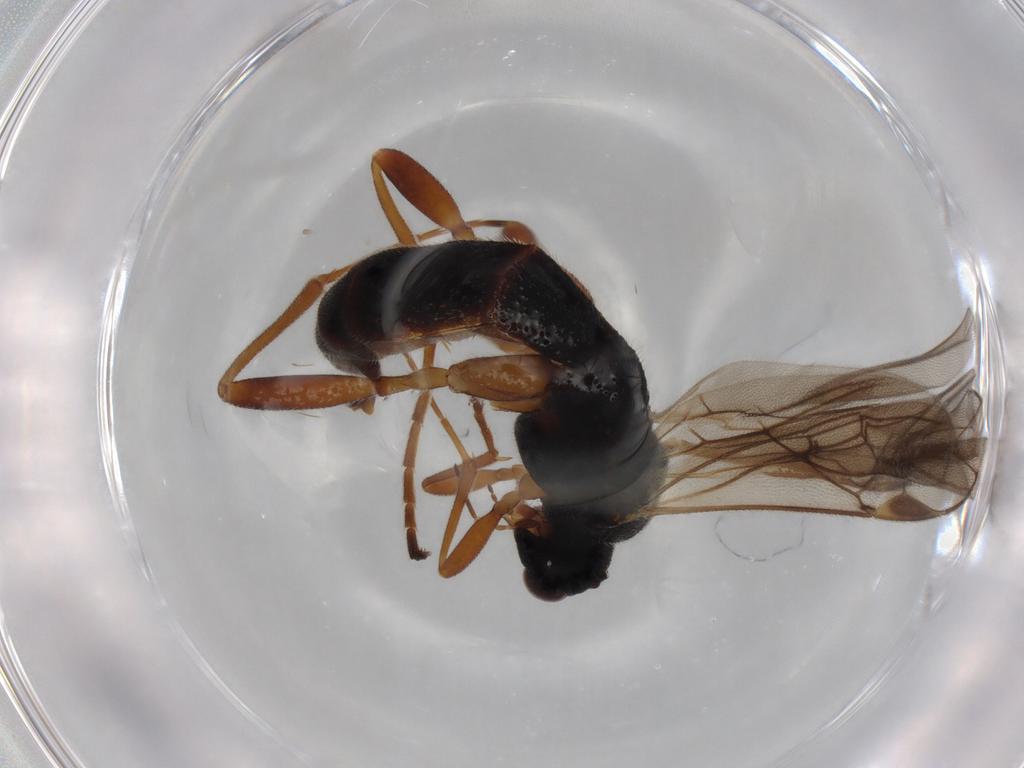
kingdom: Animalia
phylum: Arthropoda
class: Insecta
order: Hymenoptera
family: Braconidae
